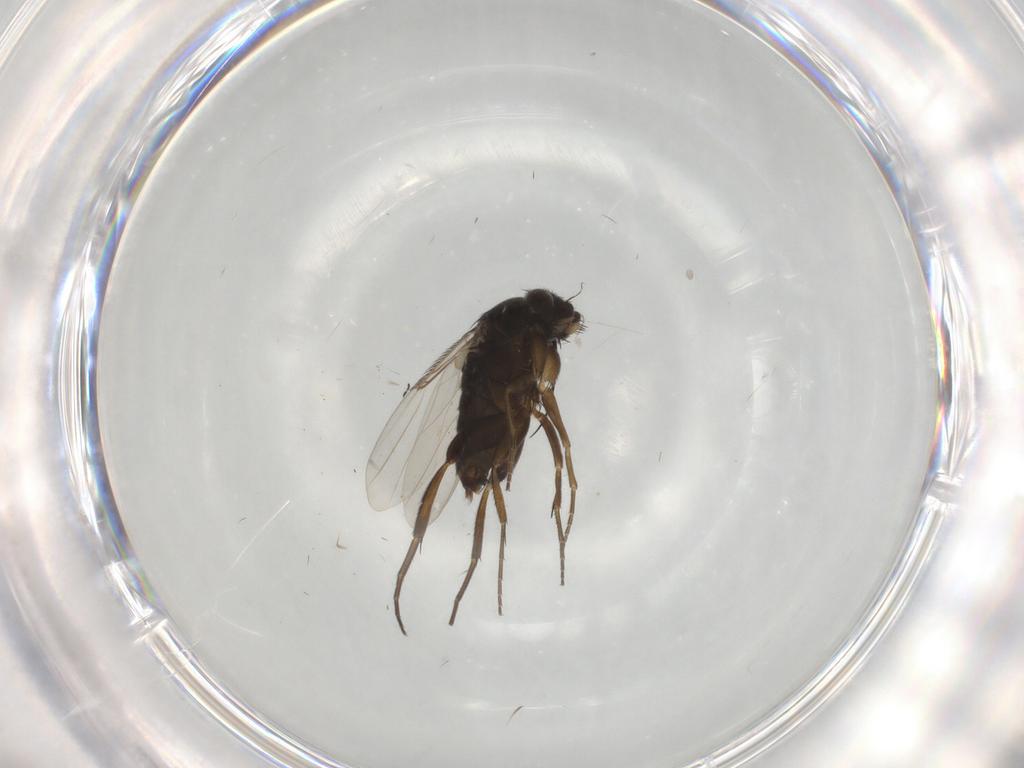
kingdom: Animalia
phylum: Arthropoda
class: Insecta
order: Diptera
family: Phoridae
